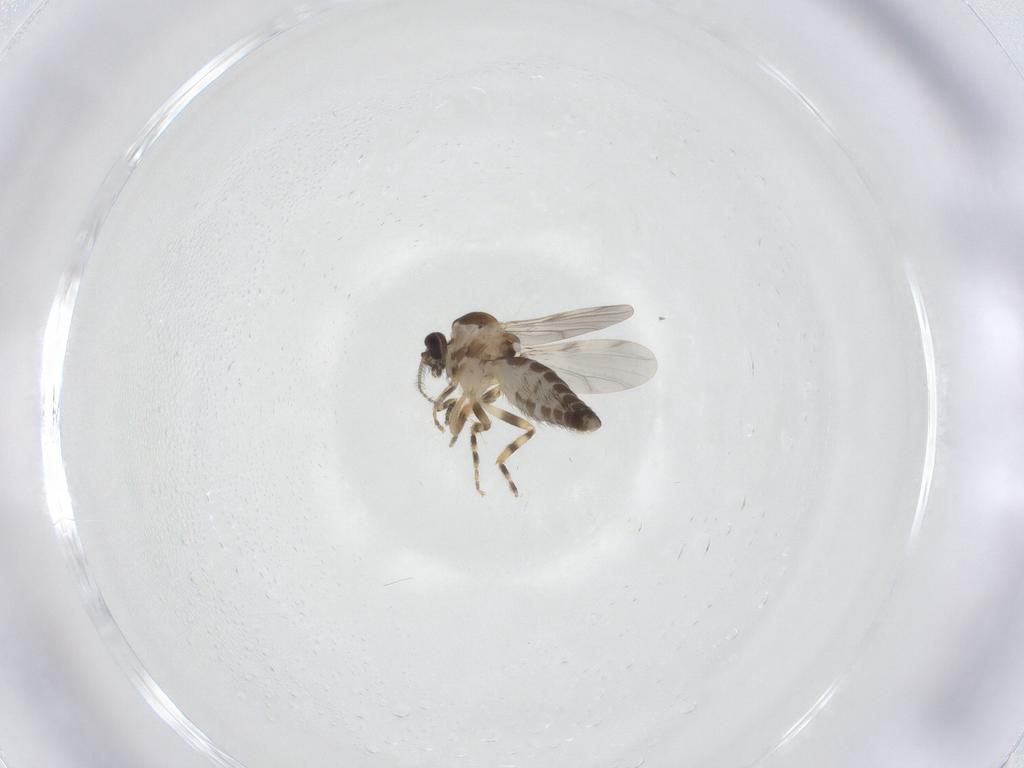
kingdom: Animalia
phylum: Arthropoda
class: Insecta
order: Diptera
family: Ceratopogonidae
